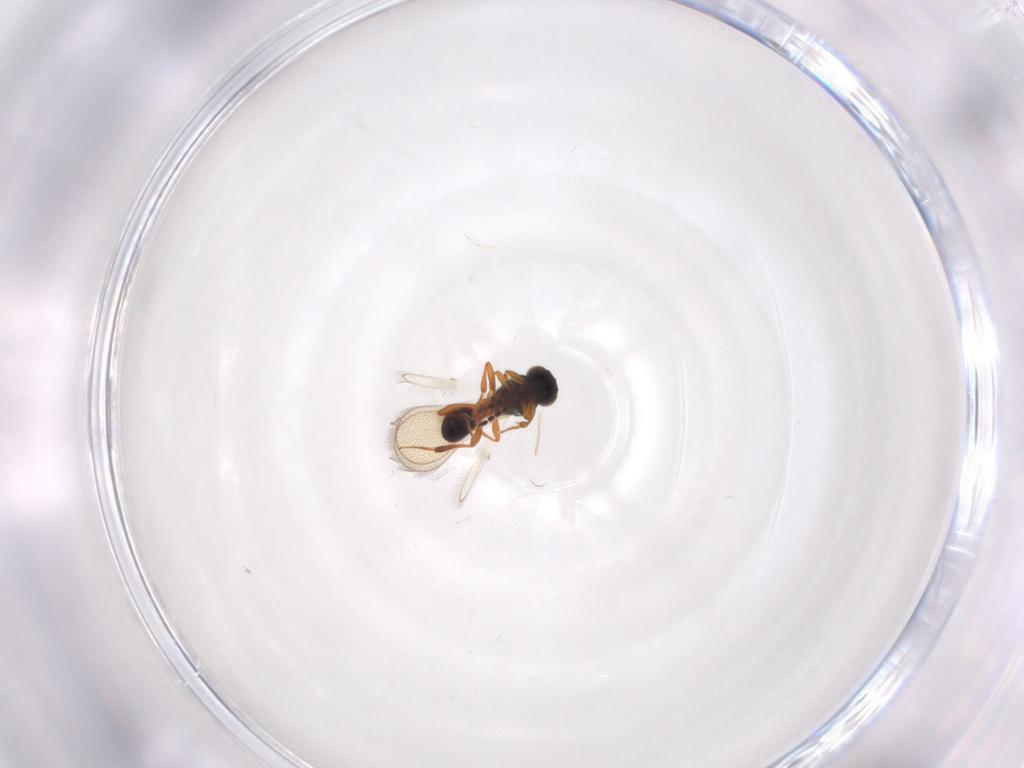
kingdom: Animalia
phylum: Arthropoda
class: Insecta
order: Hymenoptera
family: Platygastridae
